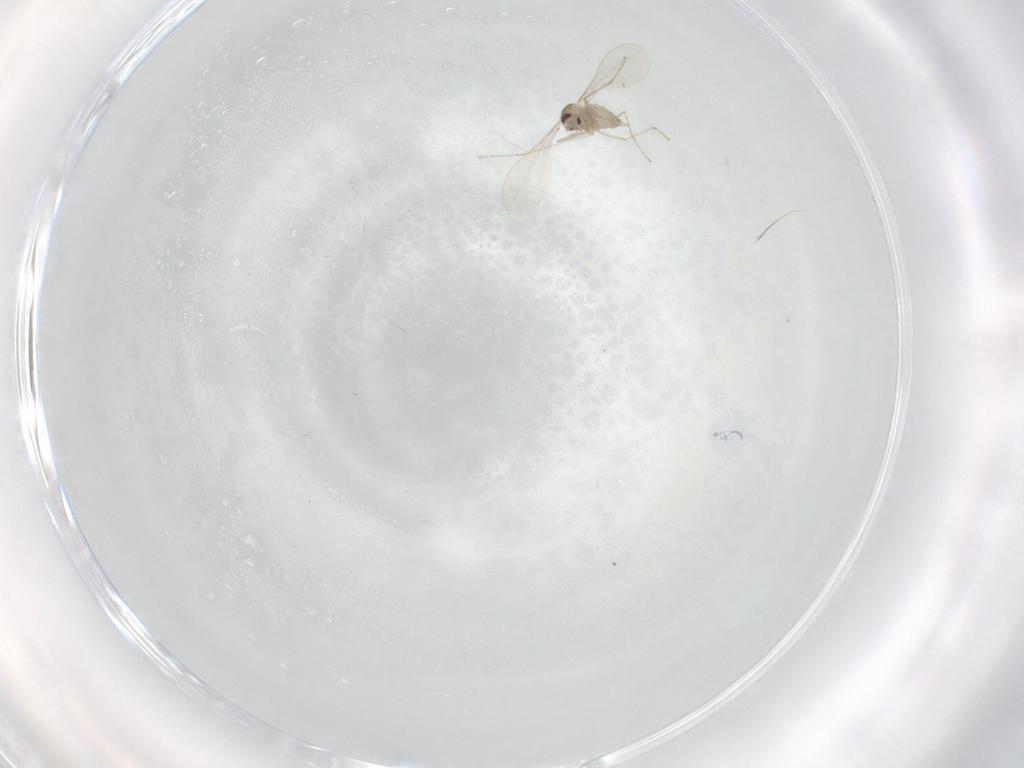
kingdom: Animalia
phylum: Arthropoda
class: Insecta
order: Diptera
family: Cecidomyiidae
